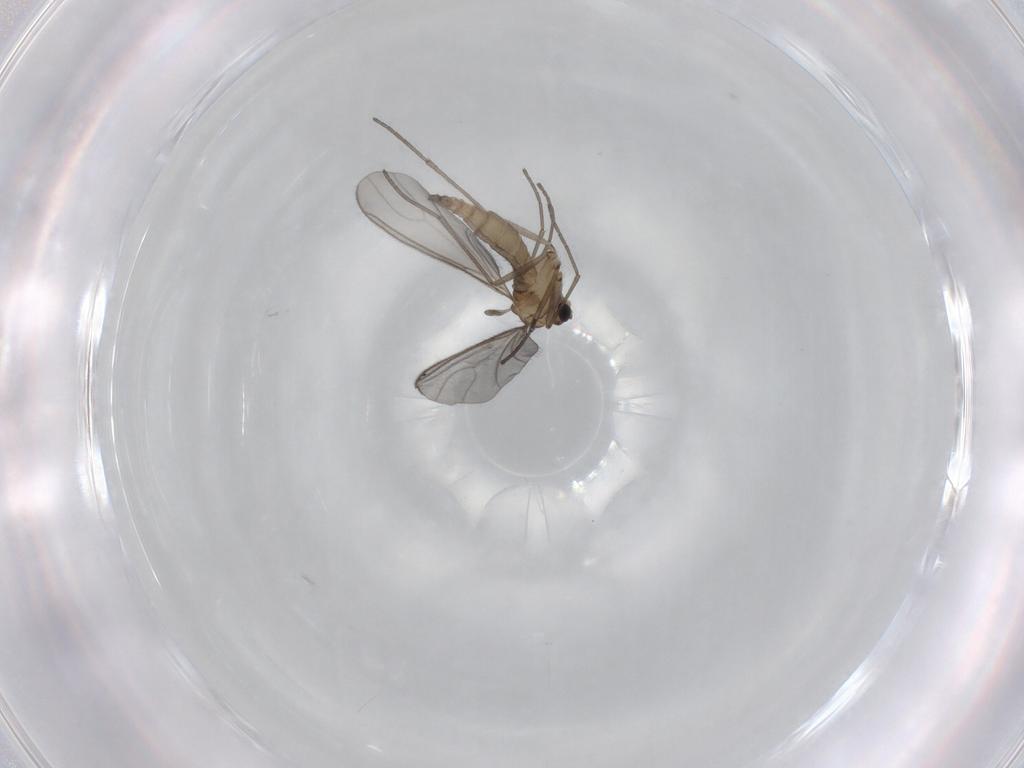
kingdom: Animalia
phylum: Arthropoda
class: Insecta
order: Diptera
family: Sciaridae
